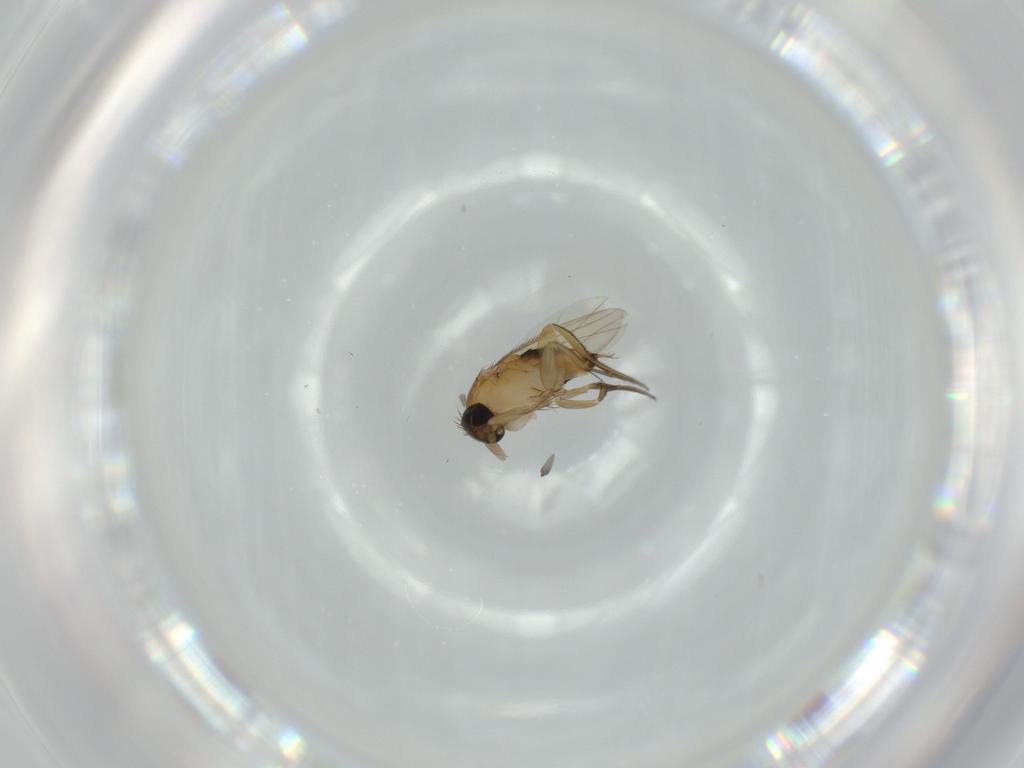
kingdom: Animalia
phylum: Arthropoda
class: Insecta
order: Diptera
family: Phoridae
